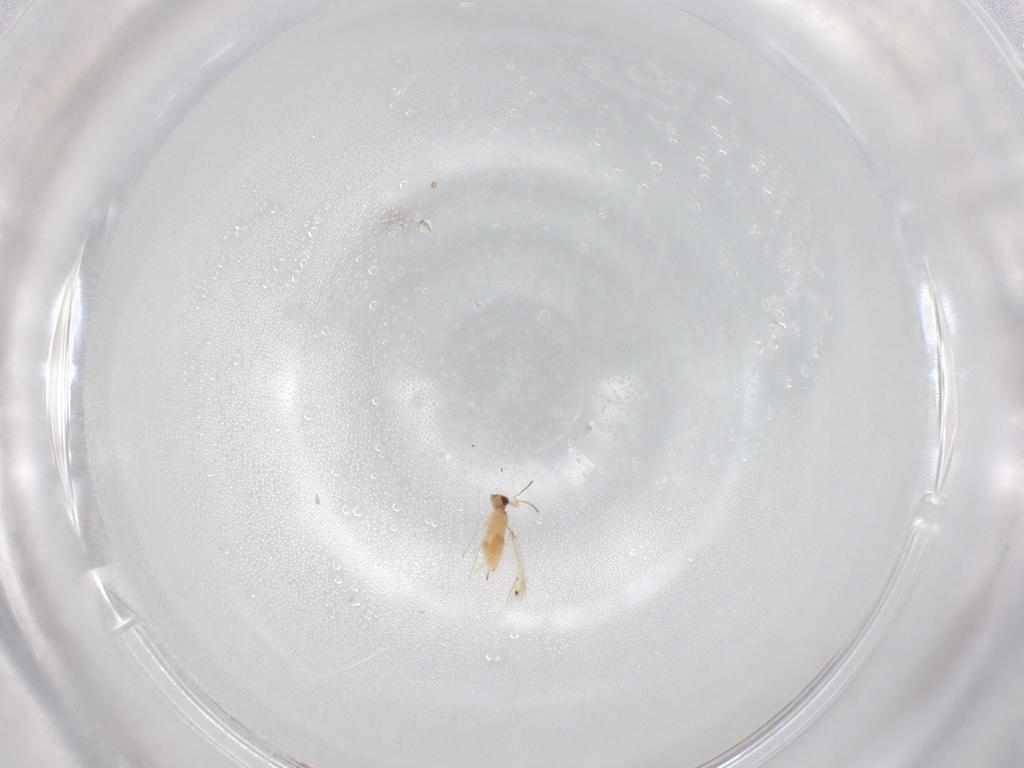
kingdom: Animalia
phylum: Arthropoda
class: Insecta
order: Hymenoptera
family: Mymaridae
